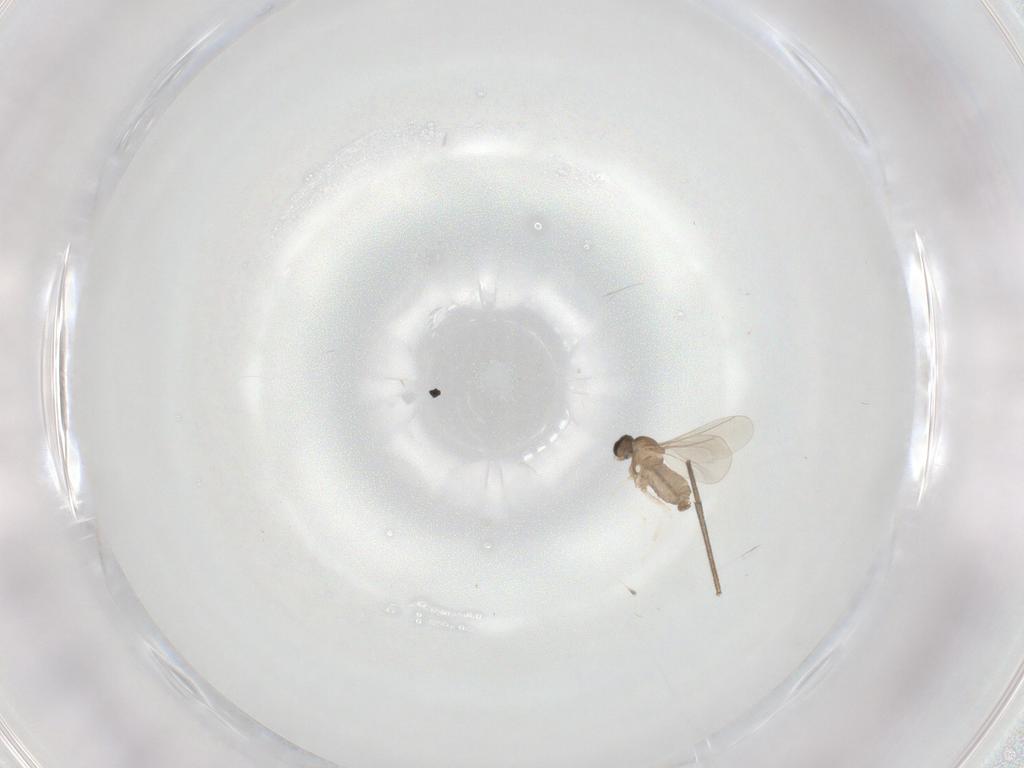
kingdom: Animalia
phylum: Arthropoda
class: Insecta
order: Diptera
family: Cecidomyiidae
